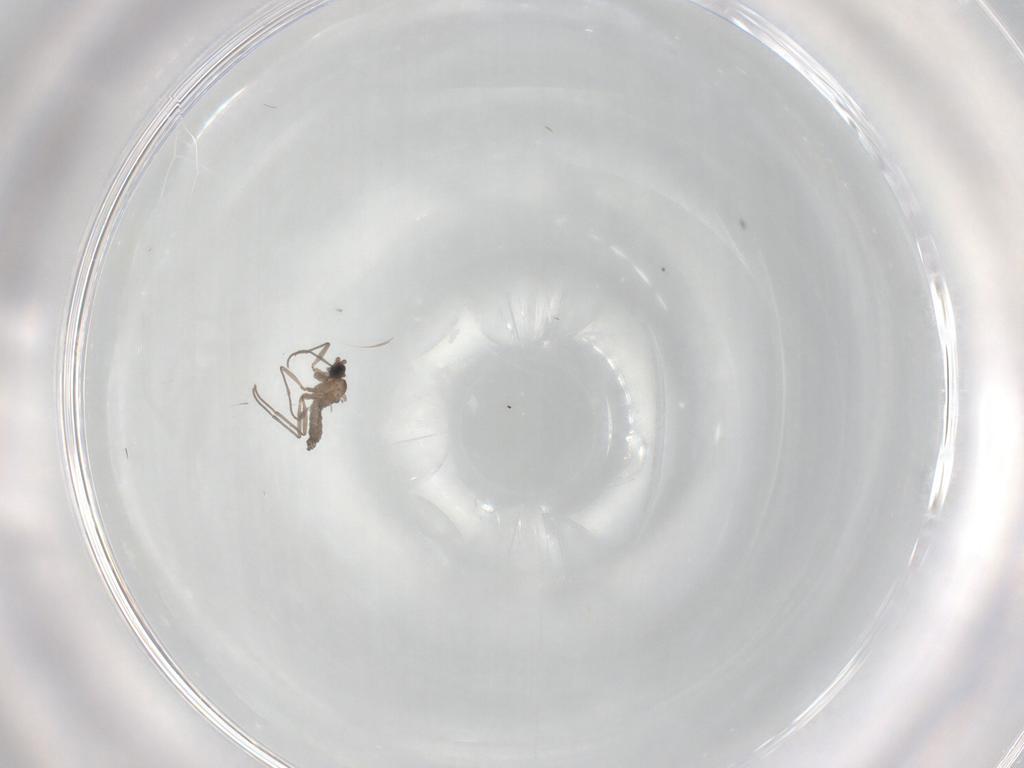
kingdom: Animalia
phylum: Arthropoda
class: Insecta
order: Diptera
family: Sciaridae
